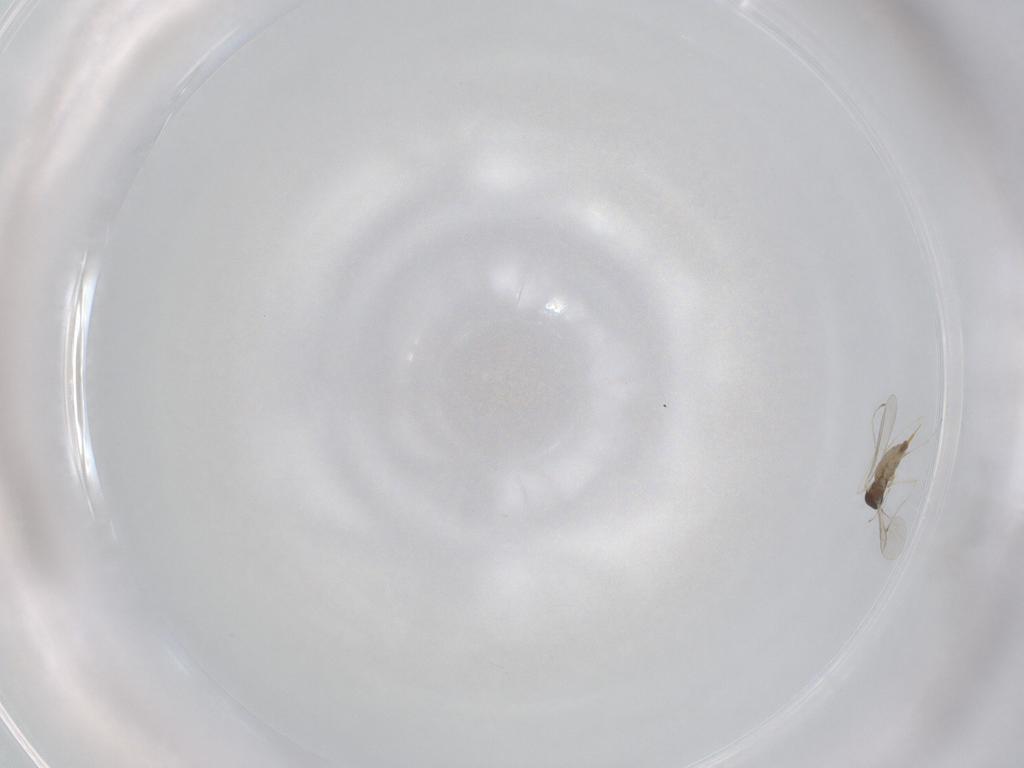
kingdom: Animalia
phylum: Arthropoda
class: Insecta
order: Diptera
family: Cecidomyiidae
